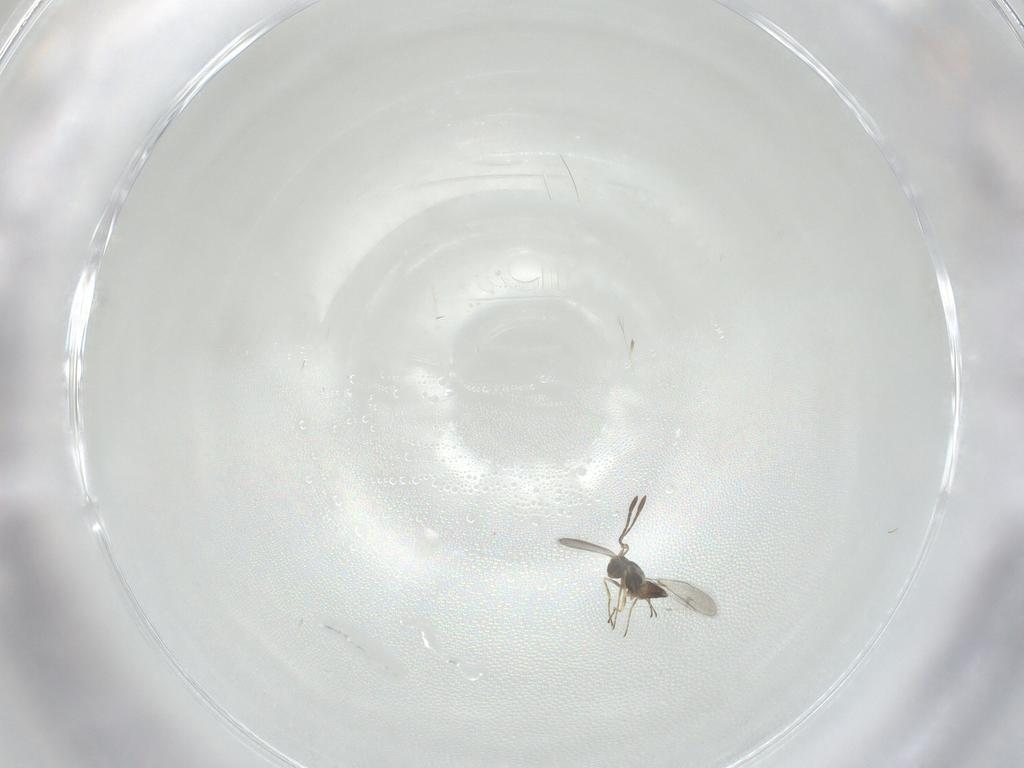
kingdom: Animalia
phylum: Arthropoda
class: Insecta
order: Hymenoptera
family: Mymaridae
